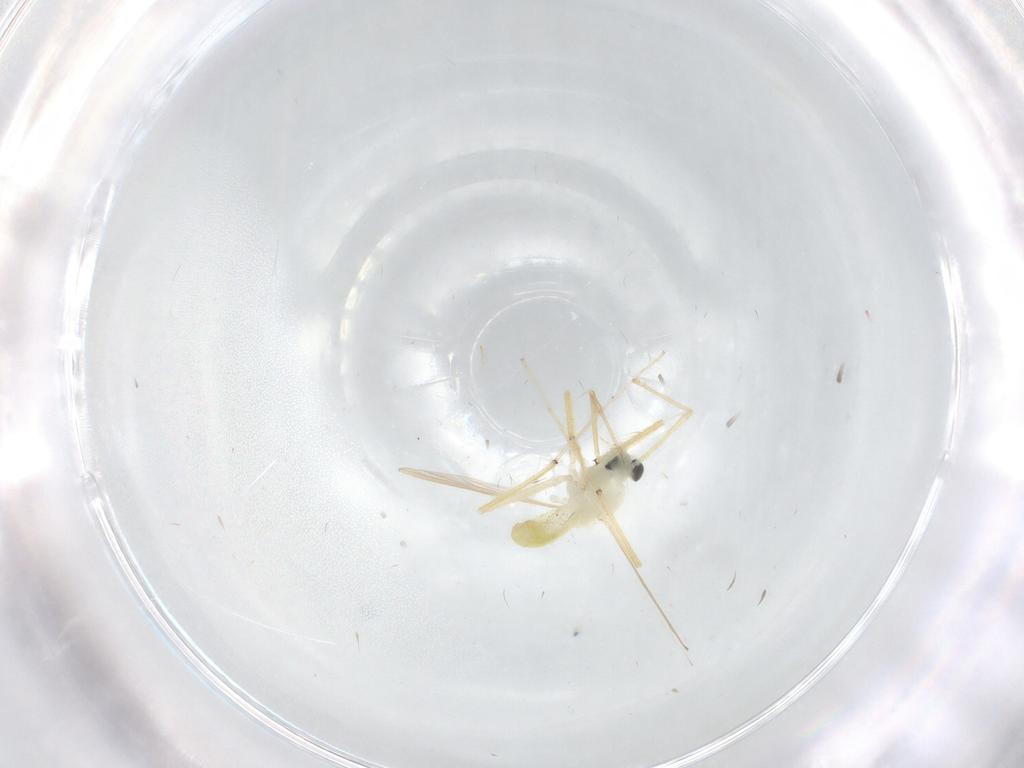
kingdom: Animalia
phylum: Arthropoda
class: Insecta
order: Diptera
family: Chironomidae
